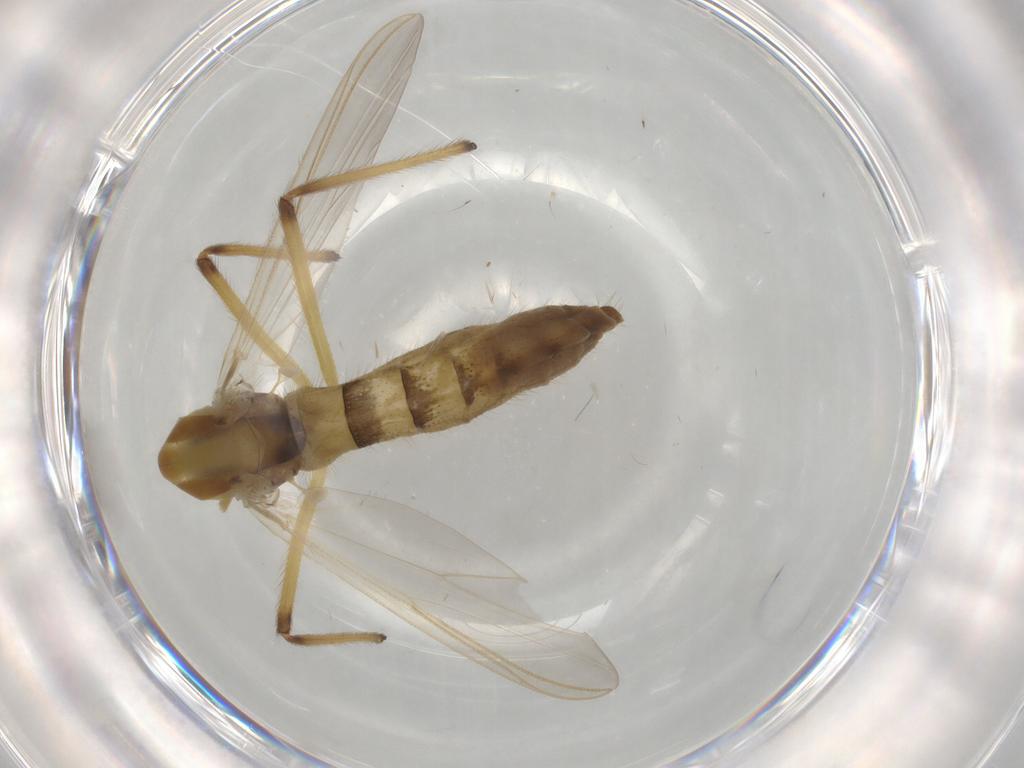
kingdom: Animalia
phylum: Arthropoda
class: Insecta
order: Diptera
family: Chironomidae
